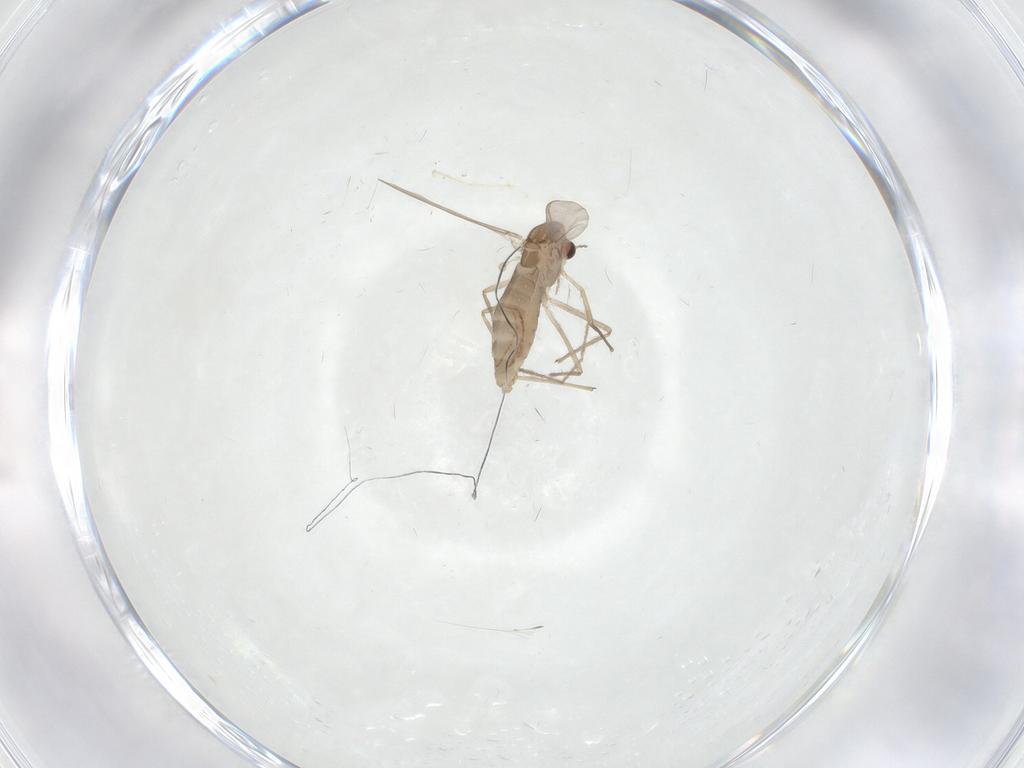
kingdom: Animalia
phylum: Arthropoda
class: Insecta
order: Diptera
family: Chironomidae
